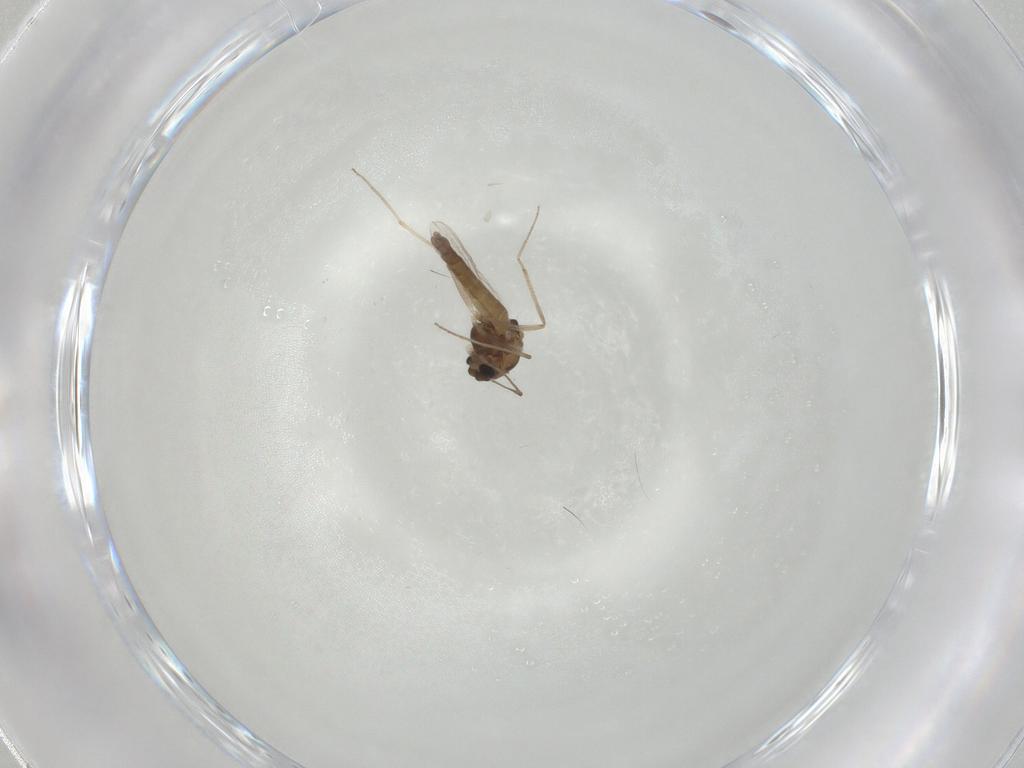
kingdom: Animalia
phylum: Arthropoda
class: Insecta
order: Diptera
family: Chironomidae
